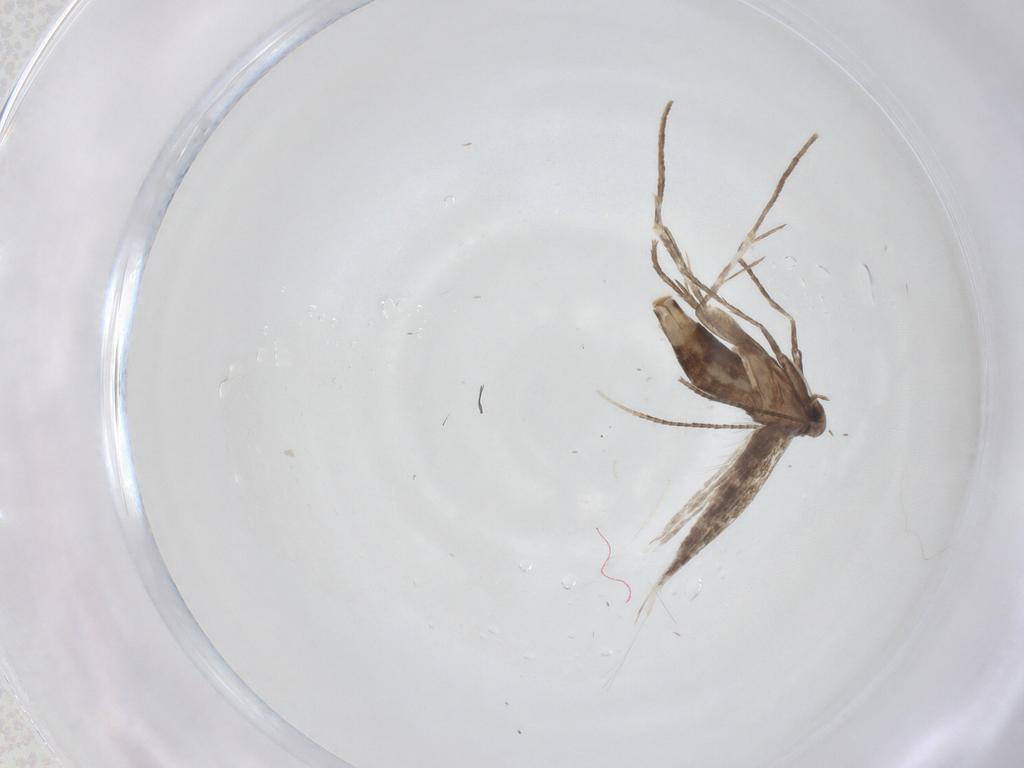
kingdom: Animalia
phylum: Arthropoda
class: Insecta
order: Lepidoptera
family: Gracillariidae
